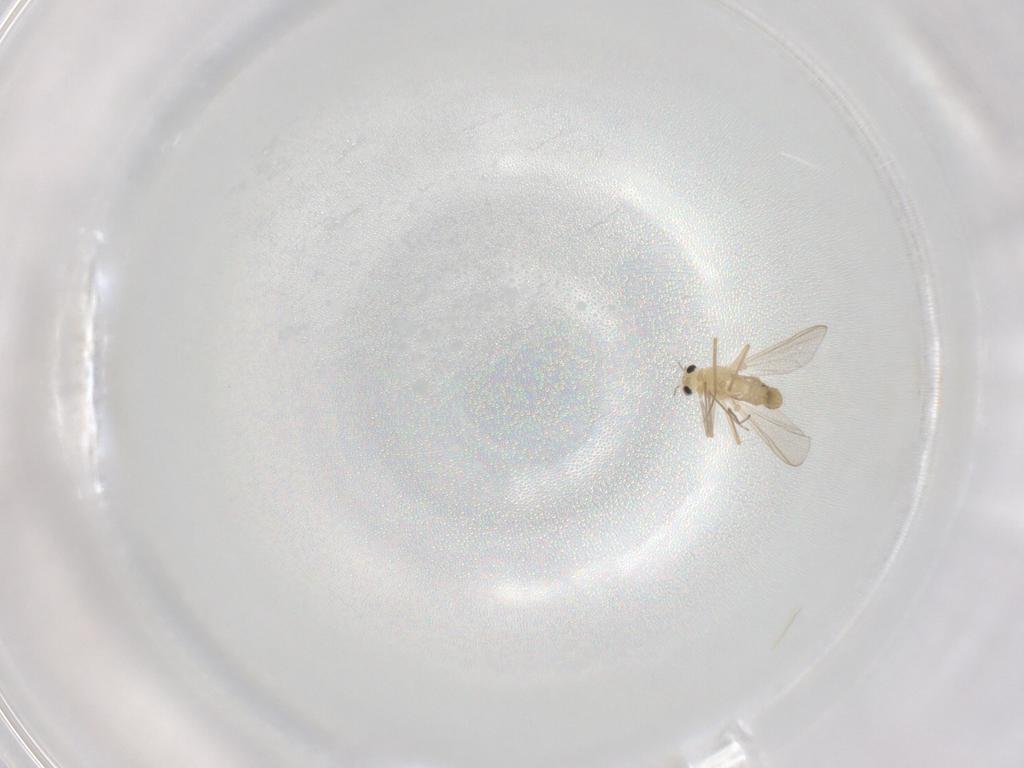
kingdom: Animalia
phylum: Arthropoda
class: Insecta
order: Diptera
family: Chironomidae
